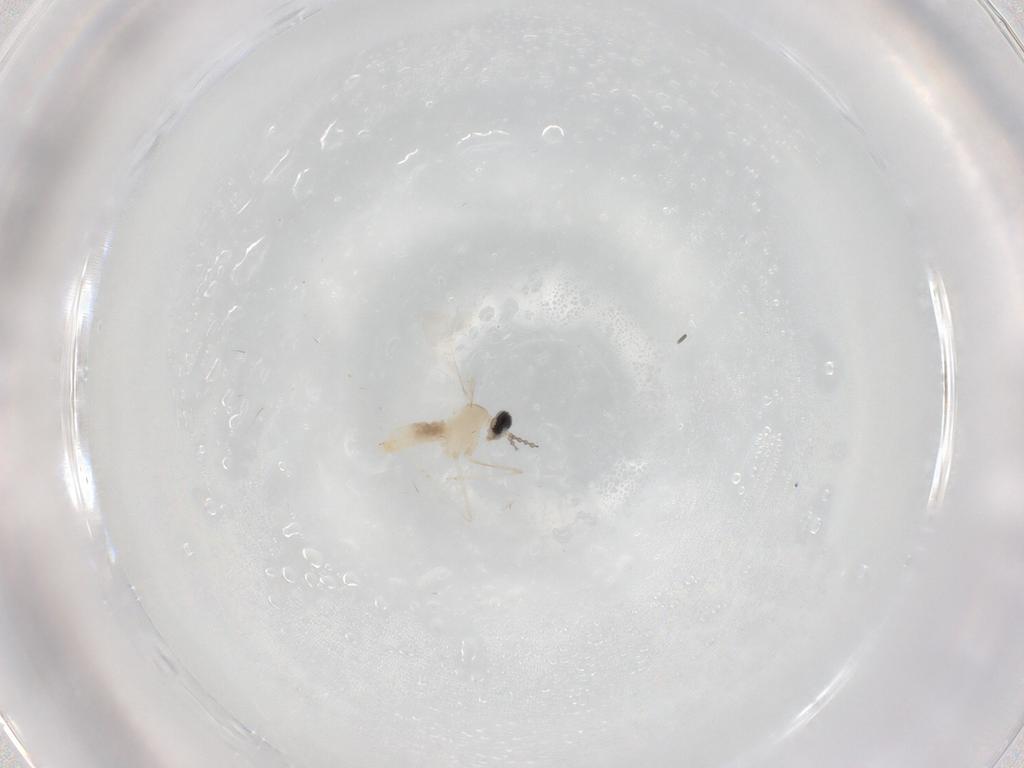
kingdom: Animalia
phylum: Arthropoda
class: Insecta
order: Diptera
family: Cecidomyiidae
